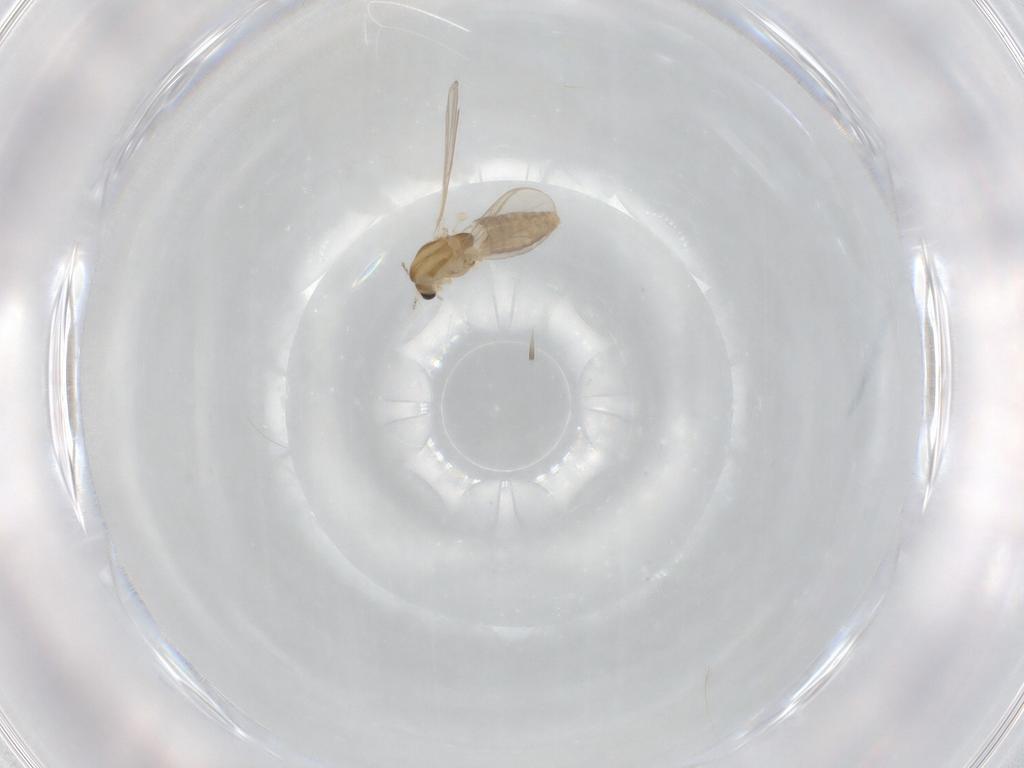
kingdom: Animalia
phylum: Arthropoda
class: Insecta
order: Diptera
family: Chironomidae
